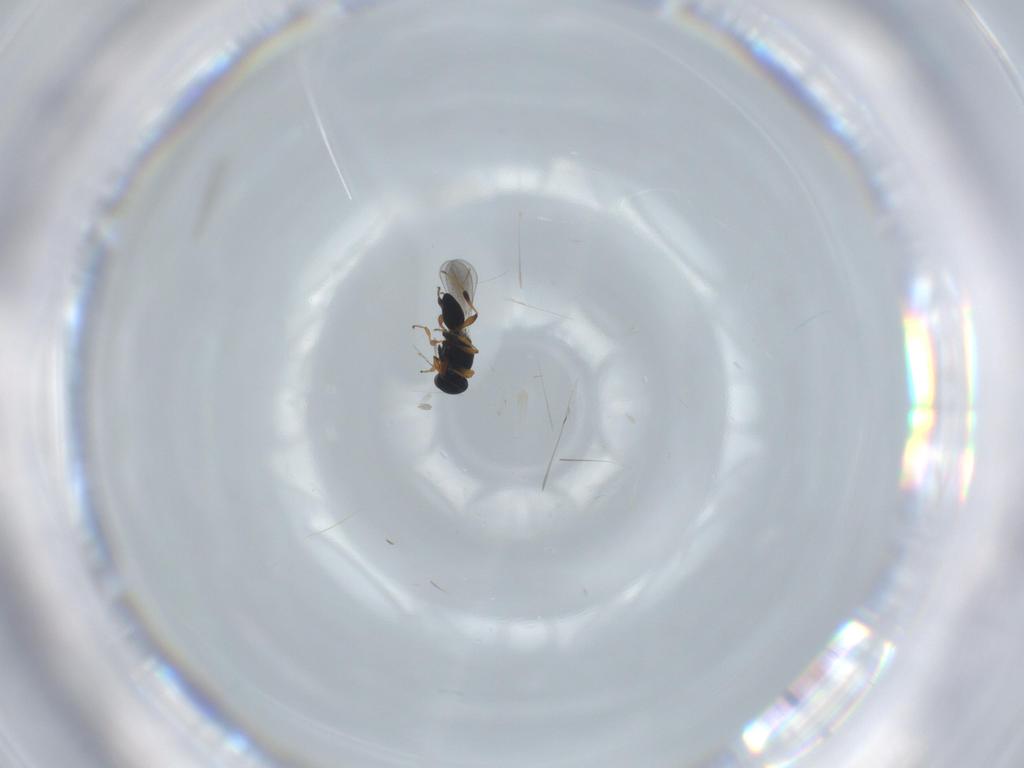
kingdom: Animalia
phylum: Arthropoda
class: Insecta
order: Hymenoptera
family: Platygastridae
